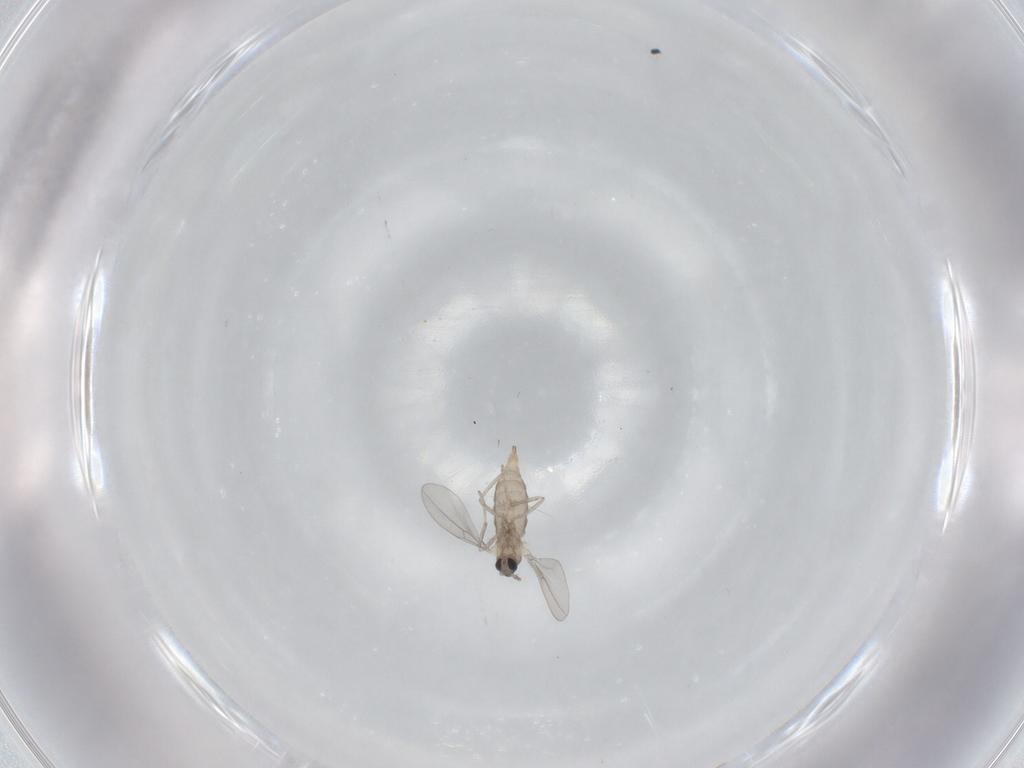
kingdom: Animalia
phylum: Arthropoda
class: Insecta
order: Diptera
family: Cecidomyiidae
